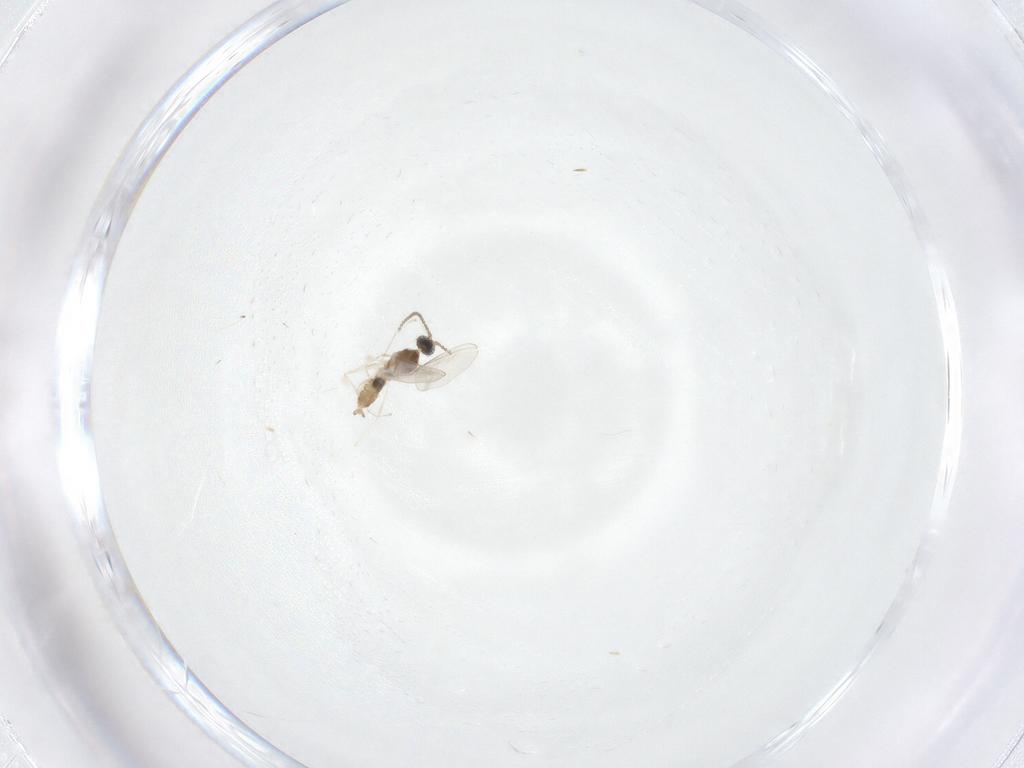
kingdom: Animalia
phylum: Arthropoda
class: Insecta
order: Diptera
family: Cecidomyiidae
